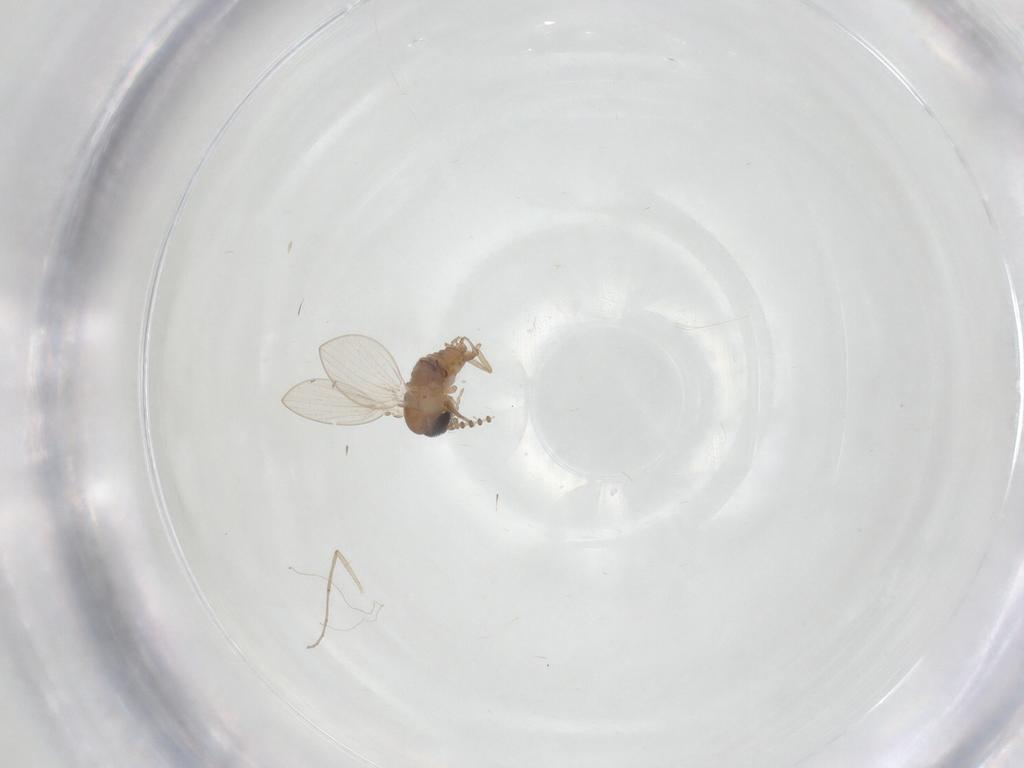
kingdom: Animalia
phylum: Arthropoda
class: Insecta
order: Diptera
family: Psychodidae
